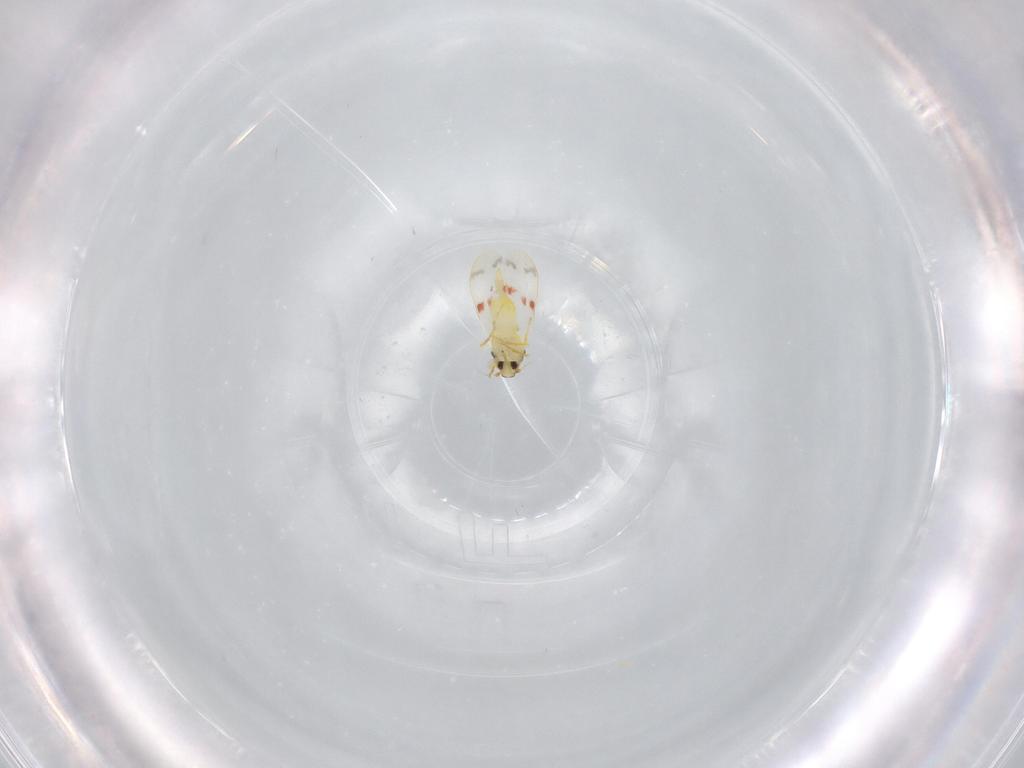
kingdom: Animalia
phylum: Arthropoda
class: Insecta
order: Hemiptera
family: Aleyrodidae
